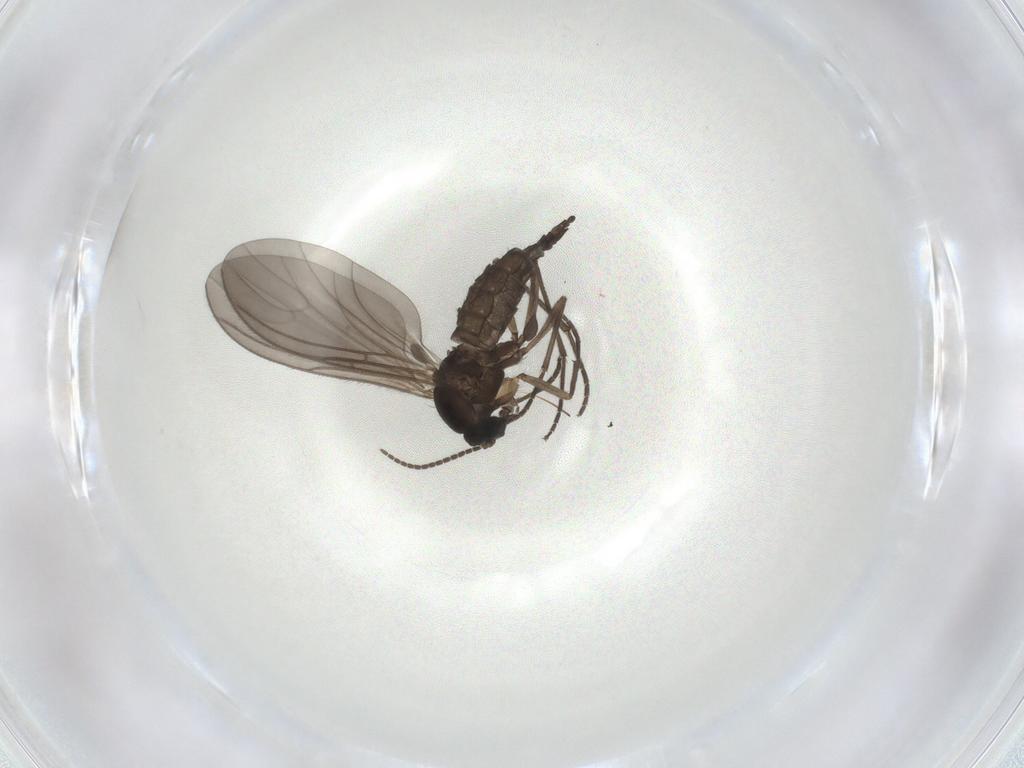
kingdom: Animalia
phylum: Arthropoda
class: Insecta
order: Diptera
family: Sciaridae
